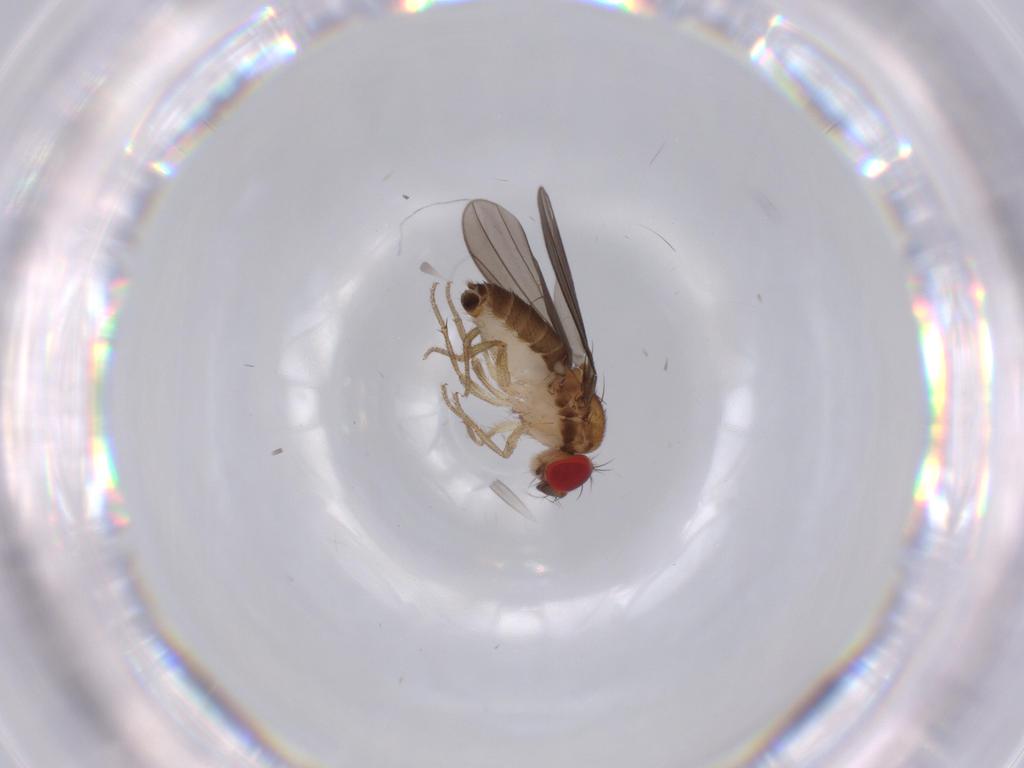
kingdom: Animalia
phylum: Arthropoda
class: Insecta
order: Diptera
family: Drosophilidae
